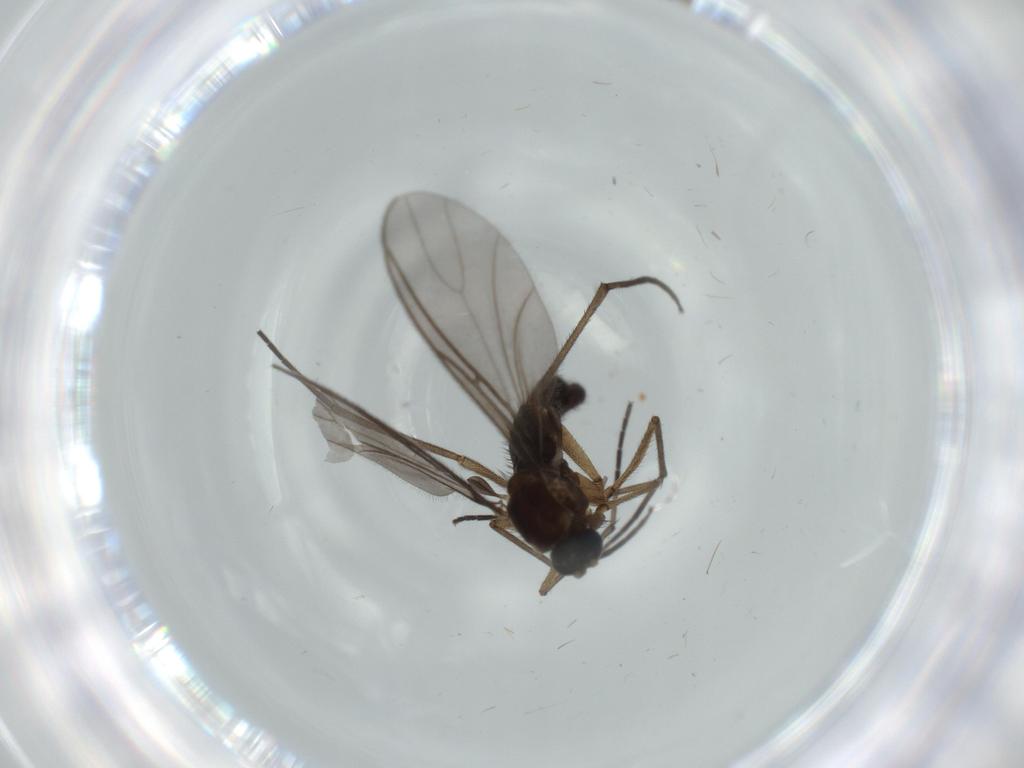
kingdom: Animalia
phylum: Arthropoda
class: Insecta
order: Diptera
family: Sciaridae
